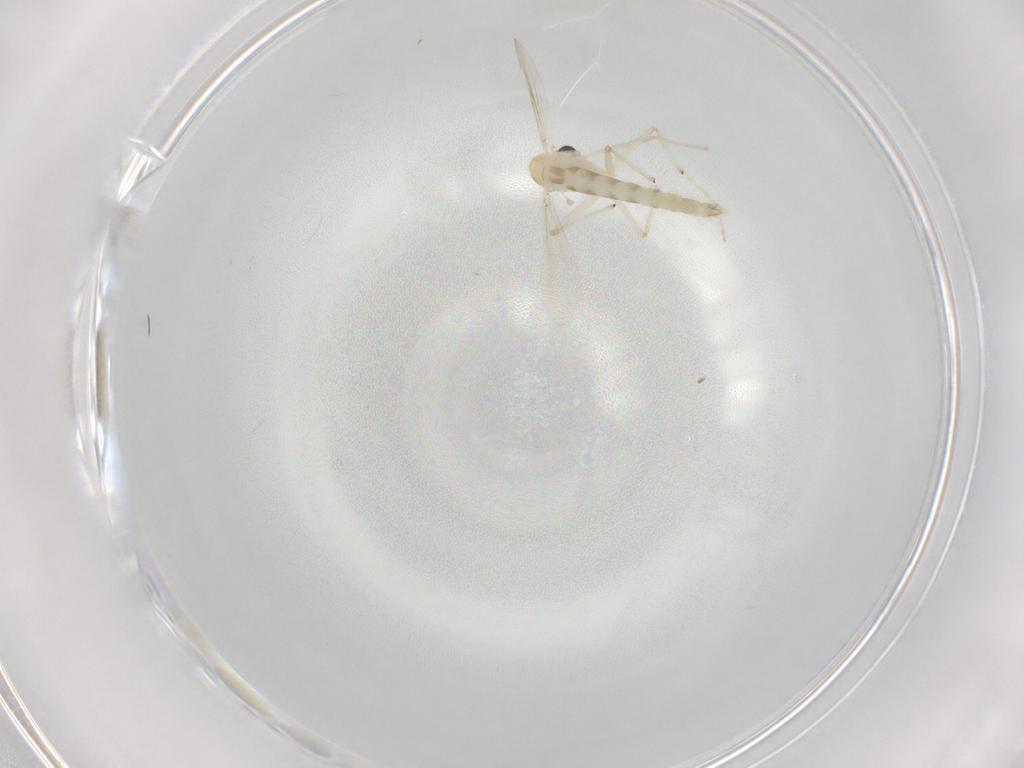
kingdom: Animalia
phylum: Arthropoda
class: Insecta
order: Diptera
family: Chironomidae
